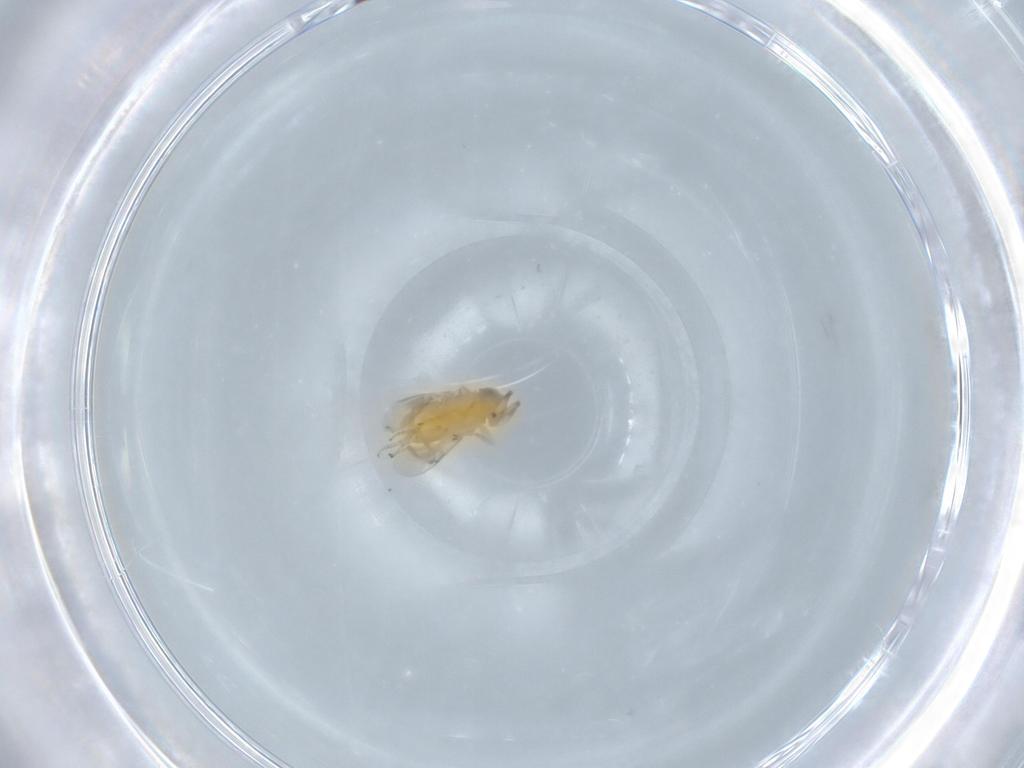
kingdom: Animalia
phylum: Arthropoda
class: Insecta
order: Hymenoptera
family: Encyrtidae
